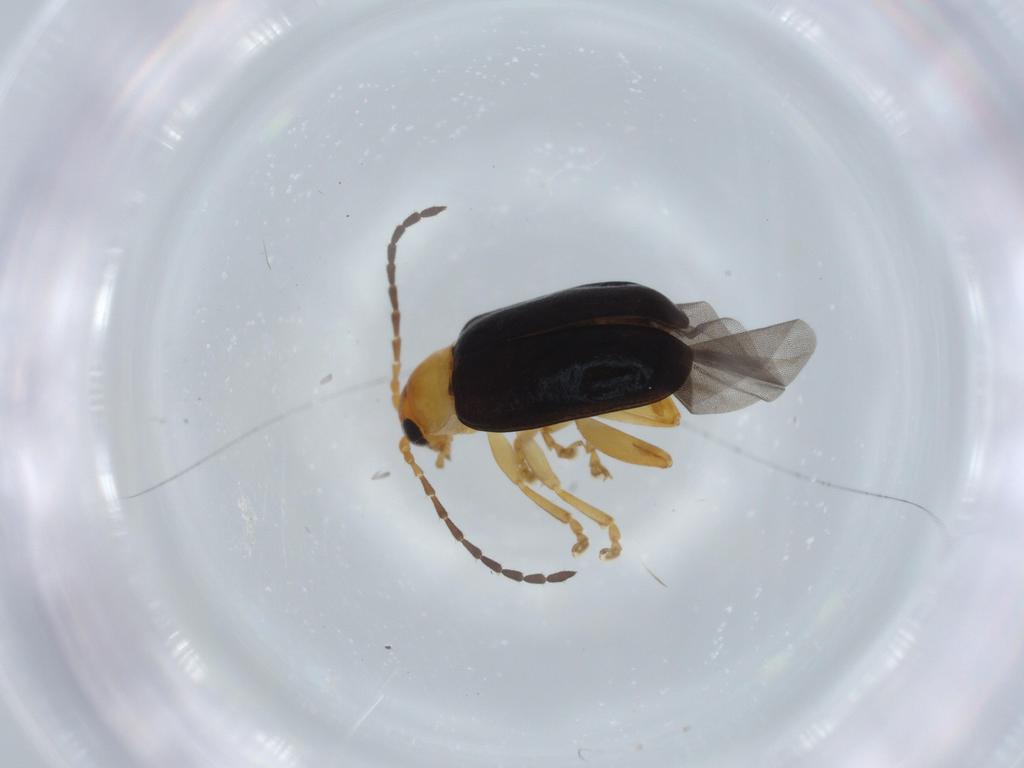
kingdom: Animalia
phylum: Arthropoda
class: Insecta
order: Coleoptera
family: Chrysomelidae
